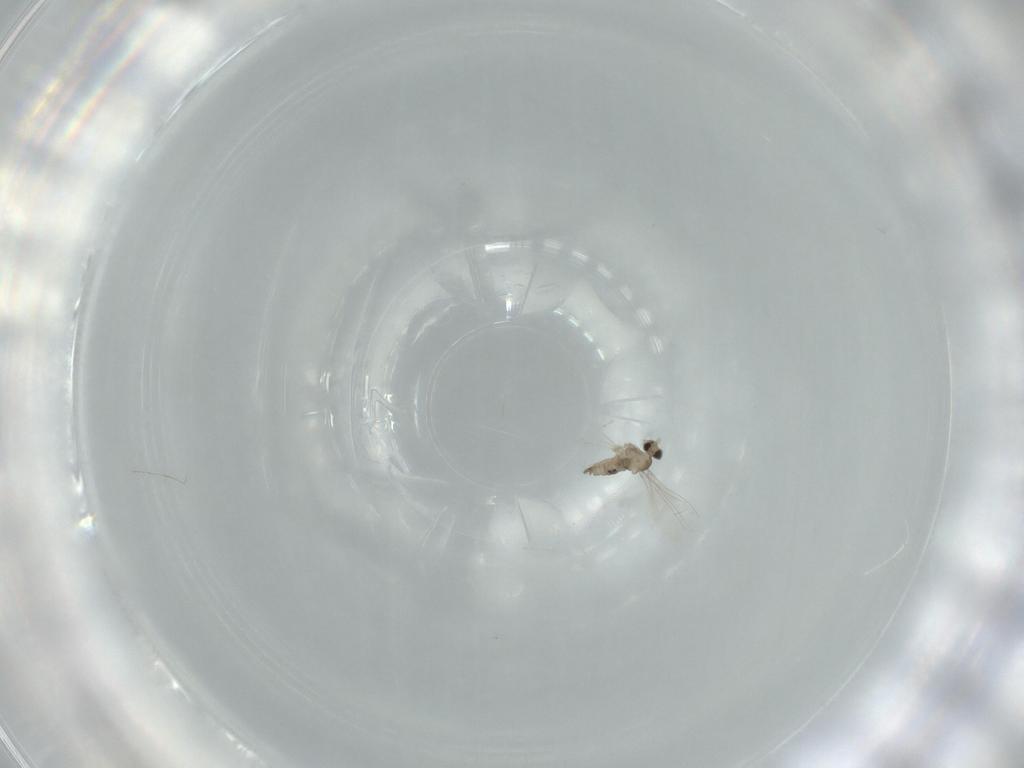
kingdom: Animalia
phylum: Arthropoda
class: Insecta
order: Diptera
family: Cecidomyiidae
